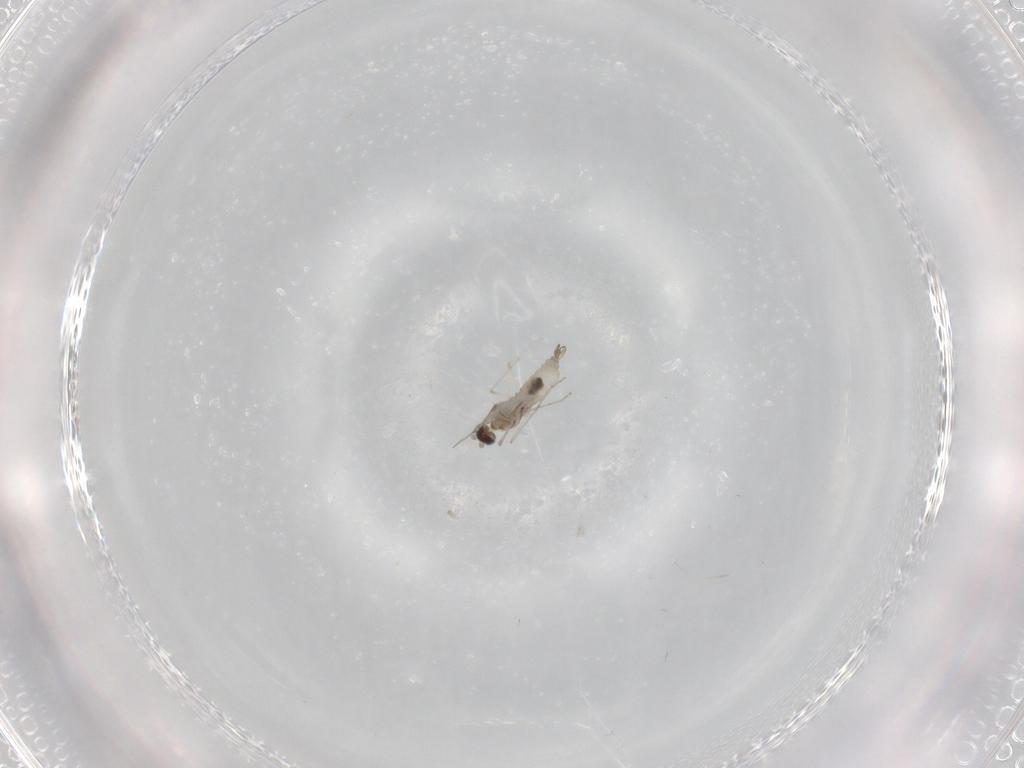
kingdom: Animalia
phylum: Arthropoda
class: Insecta
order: Diptera
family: Cecidomyiidae
